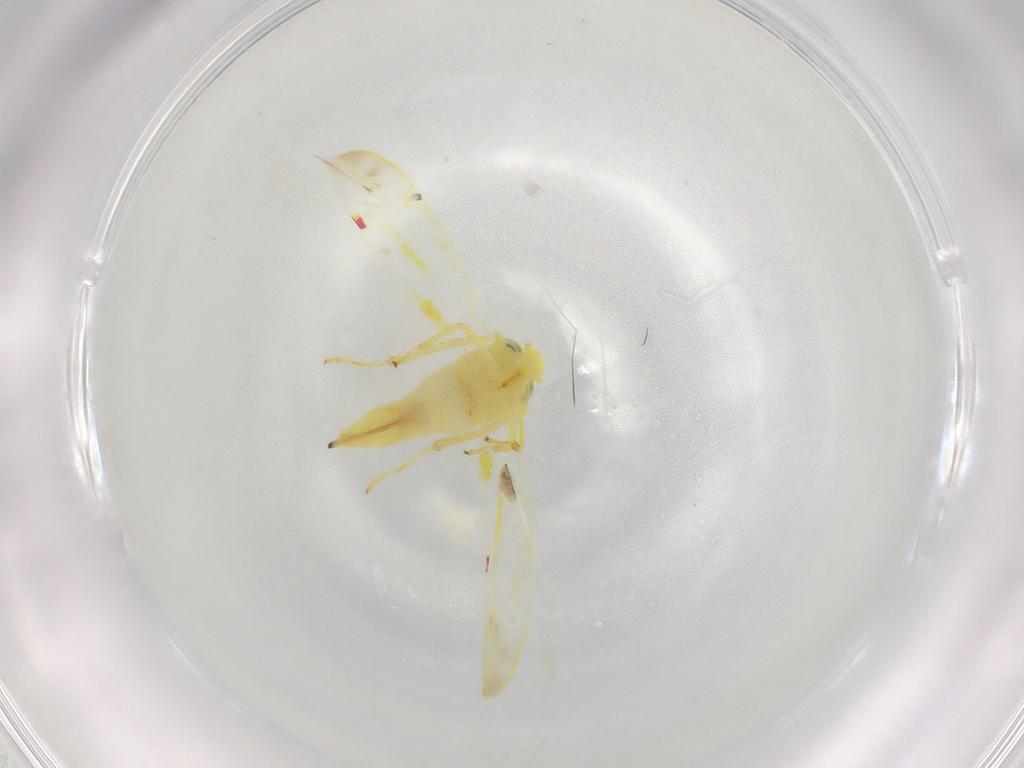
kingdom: Animalia
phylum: Arthropoda
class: Insecta
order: Hemiptera
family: Cicadellidae
